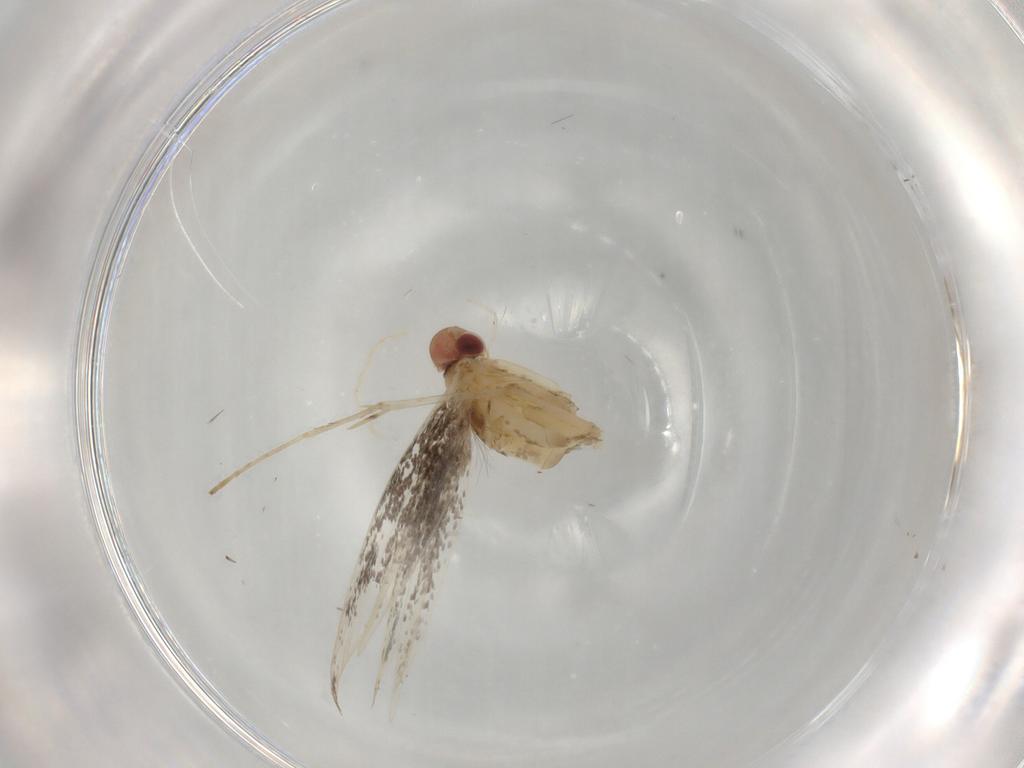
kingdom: Animalia
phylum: Arthropoda
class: Insecta
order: Lepidoptera
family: Gracillariidae
